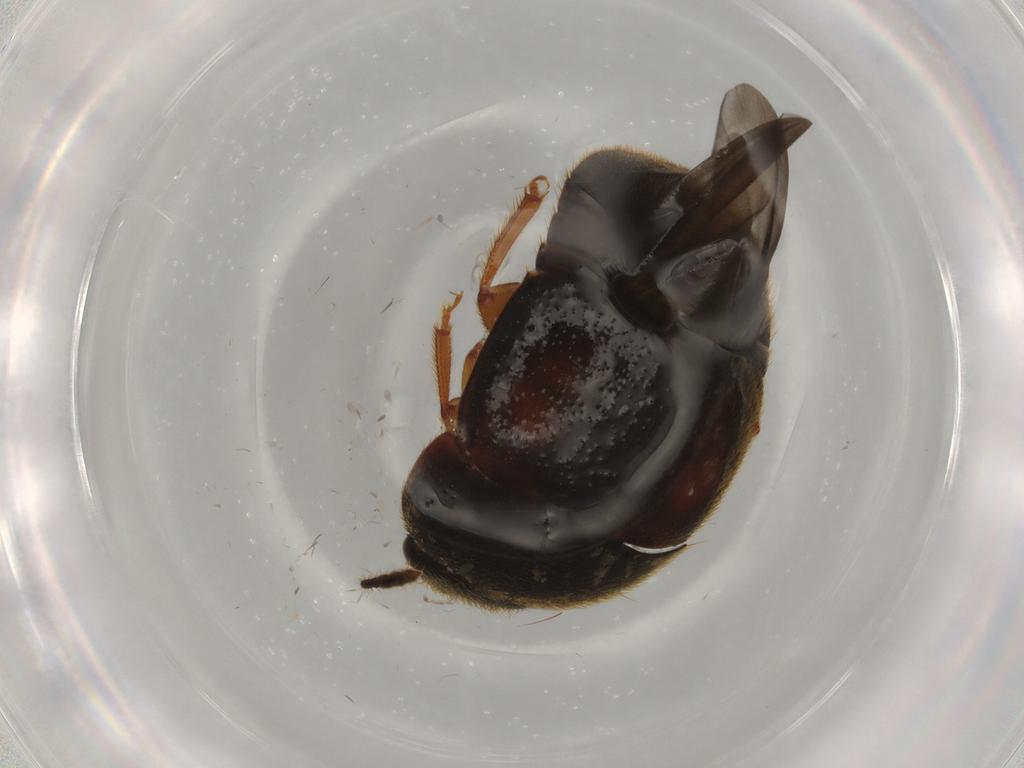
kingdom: Animalia
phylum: Arthropoda
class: Insecta
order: Coleoptera
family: Nitidulidae
